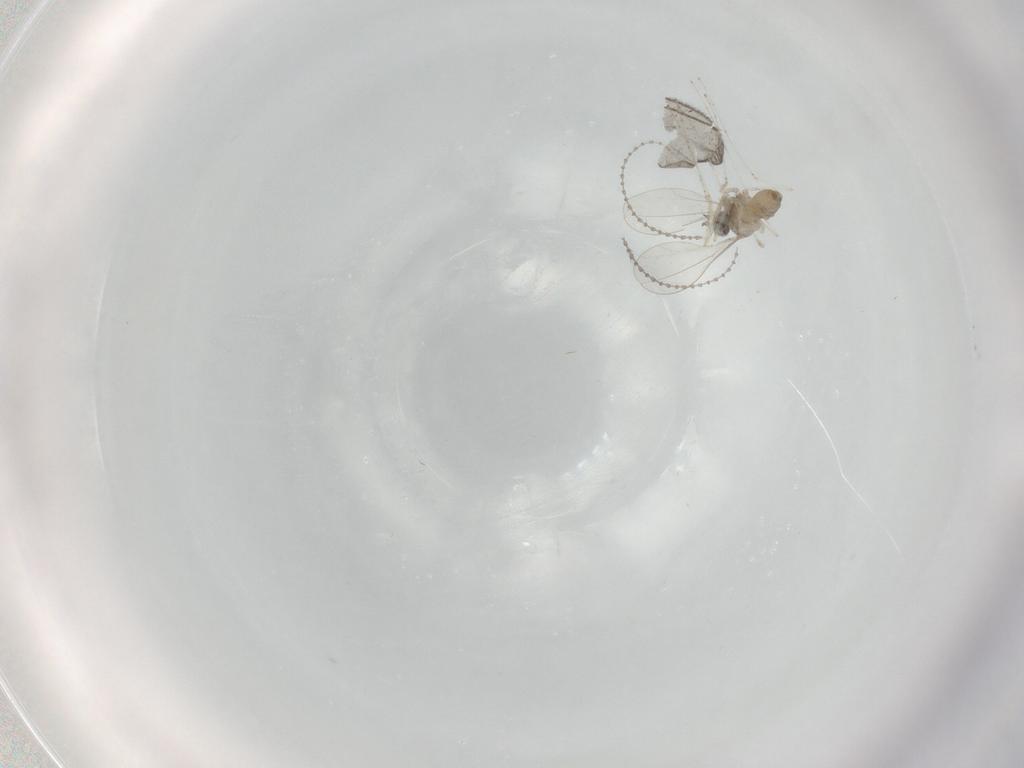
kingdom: Animalia
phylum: Arthropoda
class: Insecta
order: Diptera
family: Cecidomyiidae
